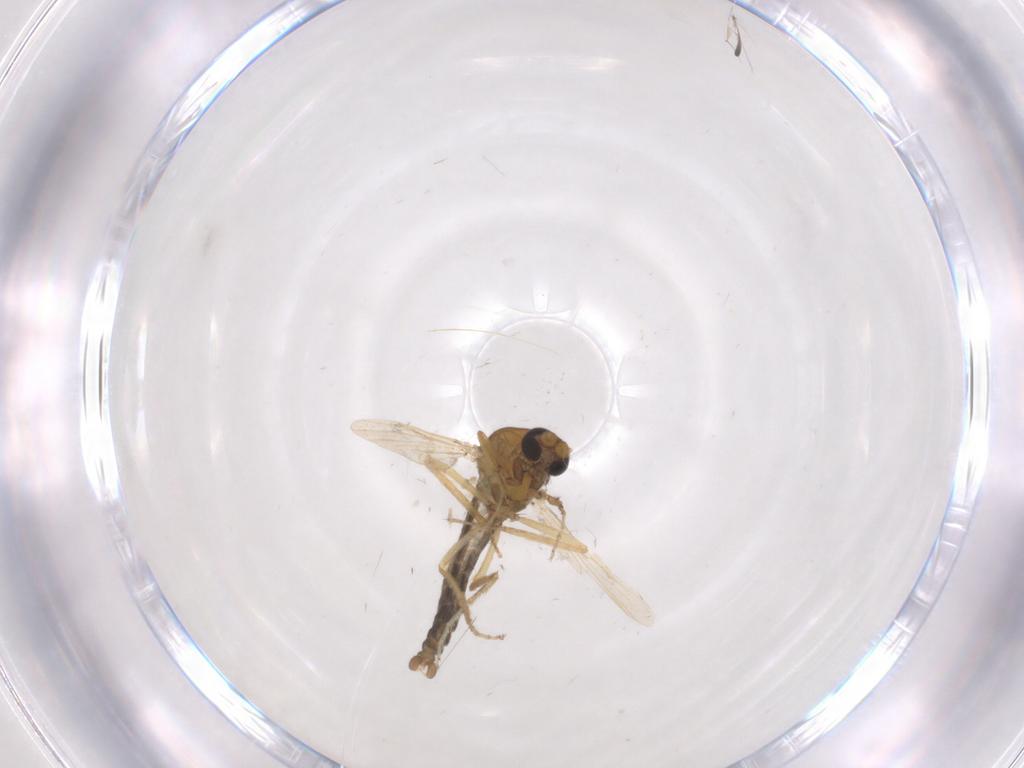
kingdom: Animalia
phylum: Arthropoda
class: Insecta
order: Diptera
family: Ceratopogonidae
